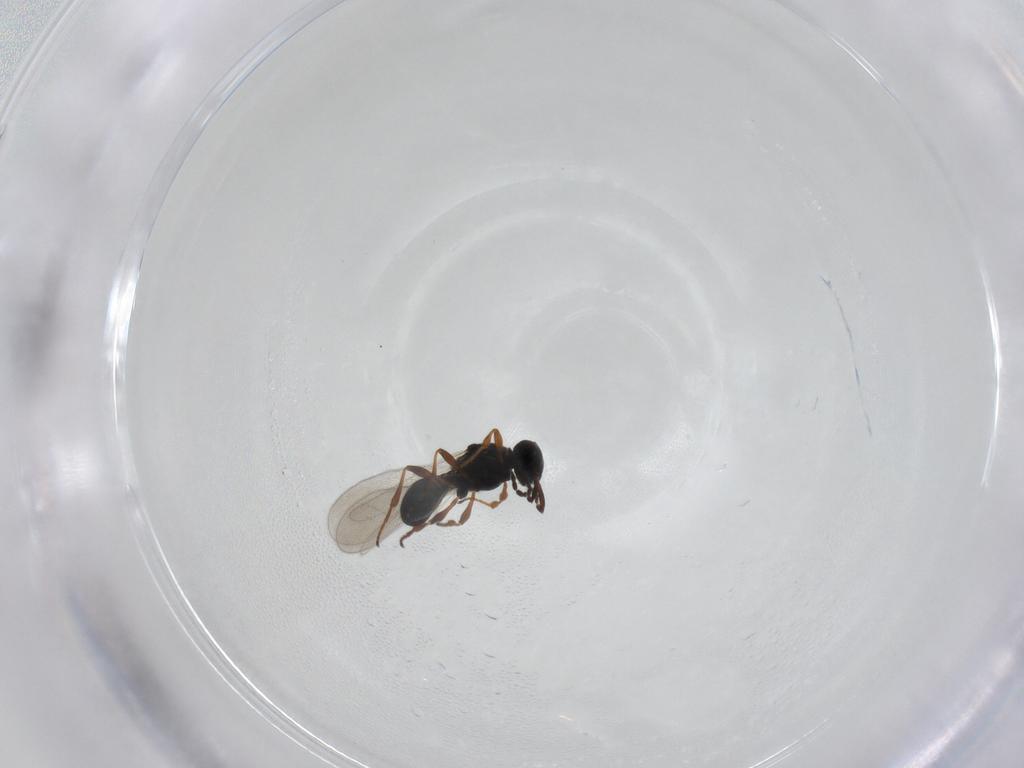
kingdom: Animalia
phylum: Arthropoda
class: Insecta
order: Hymenoptera
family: Platygastridae
